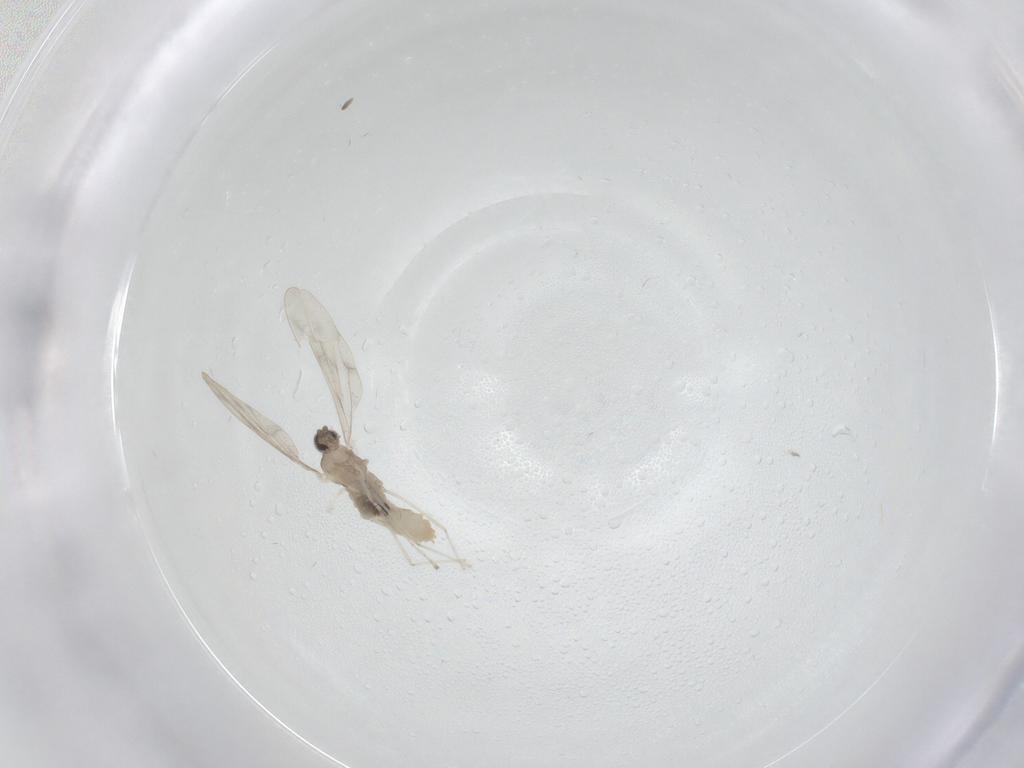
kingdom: Animalia
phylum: Arthropoda
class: Insecta
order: Diptera
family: Cecidomyiidae
